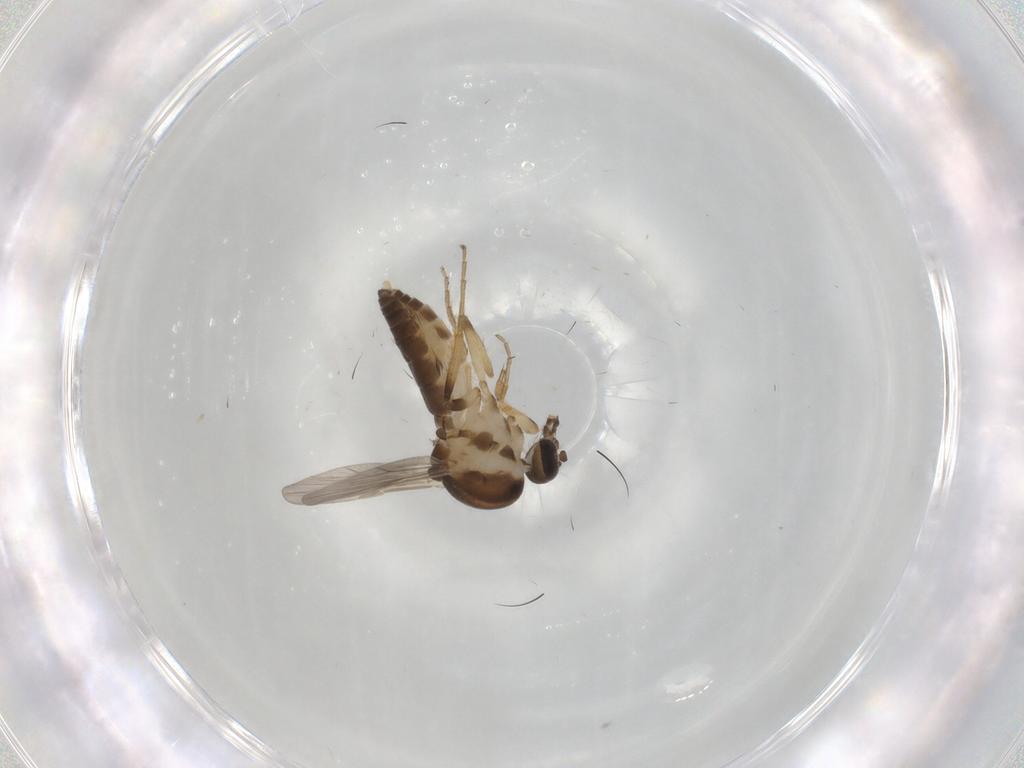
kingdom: Animalia
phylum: Arthropoda
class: Insecta
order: Diptera
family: Ceratopogonidae
